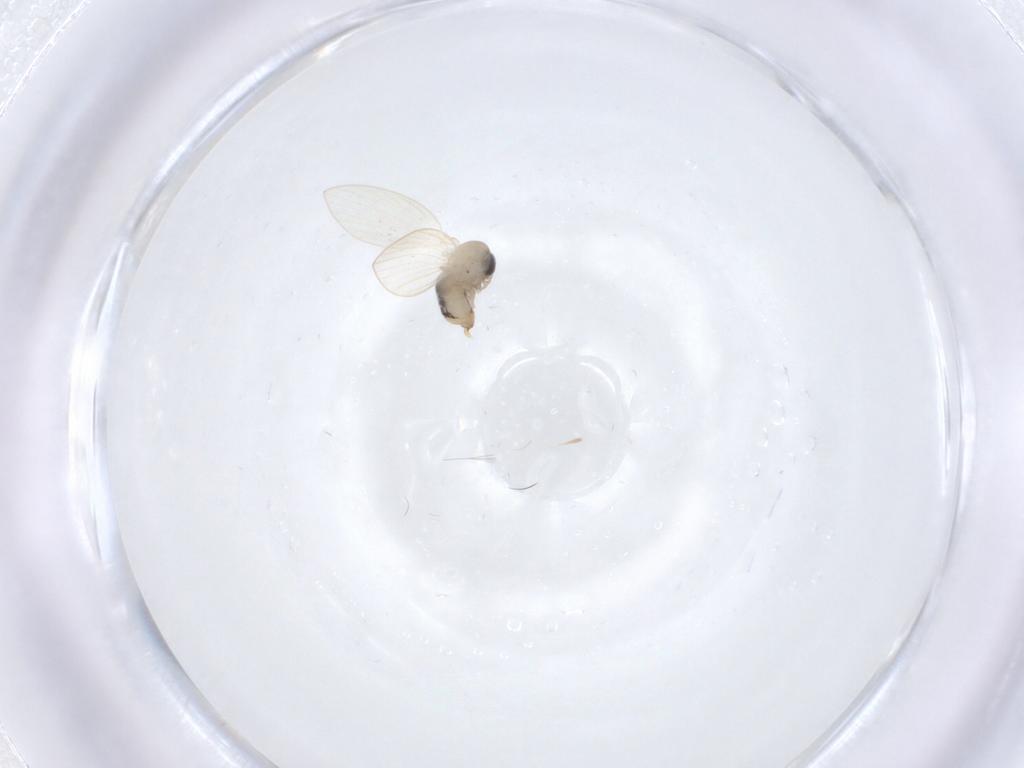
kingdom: Animalia
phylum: Arthropoda
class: Insecta
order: Diptera
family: Psychodidae
